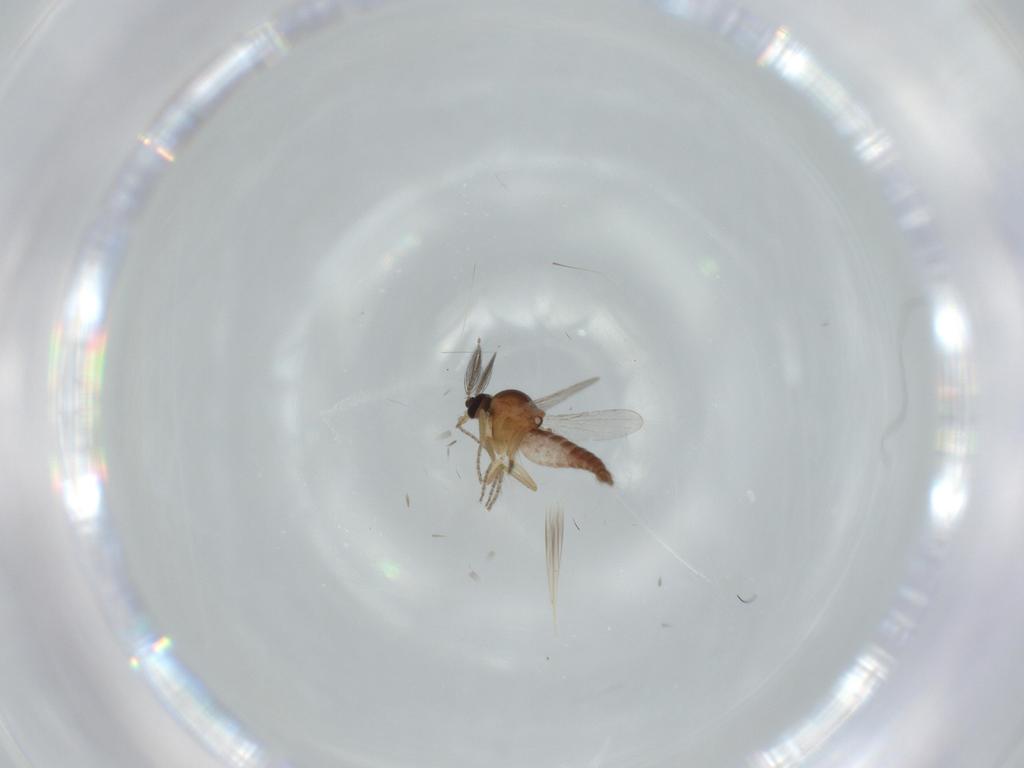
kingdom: Animalia
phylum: Arthropoda
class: Insecta
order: Diptera
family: Ceratopogonidae
